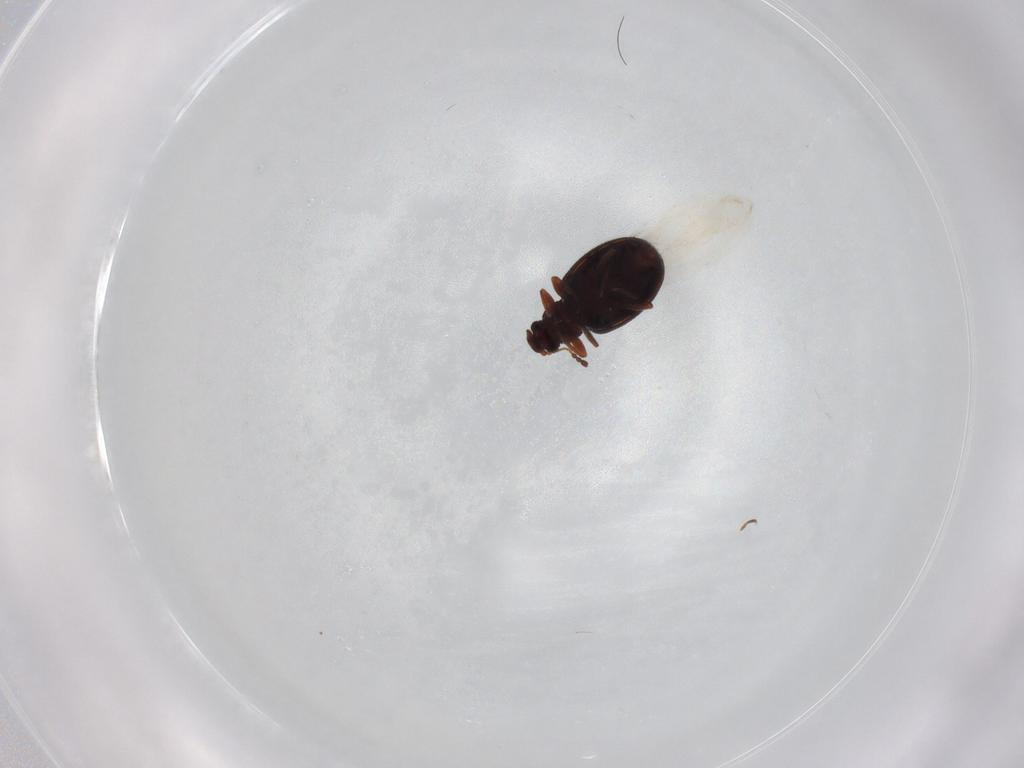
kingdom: Animalia
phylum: Arthropoda
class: Insecta
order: Coleoptera
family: Latridiidae
